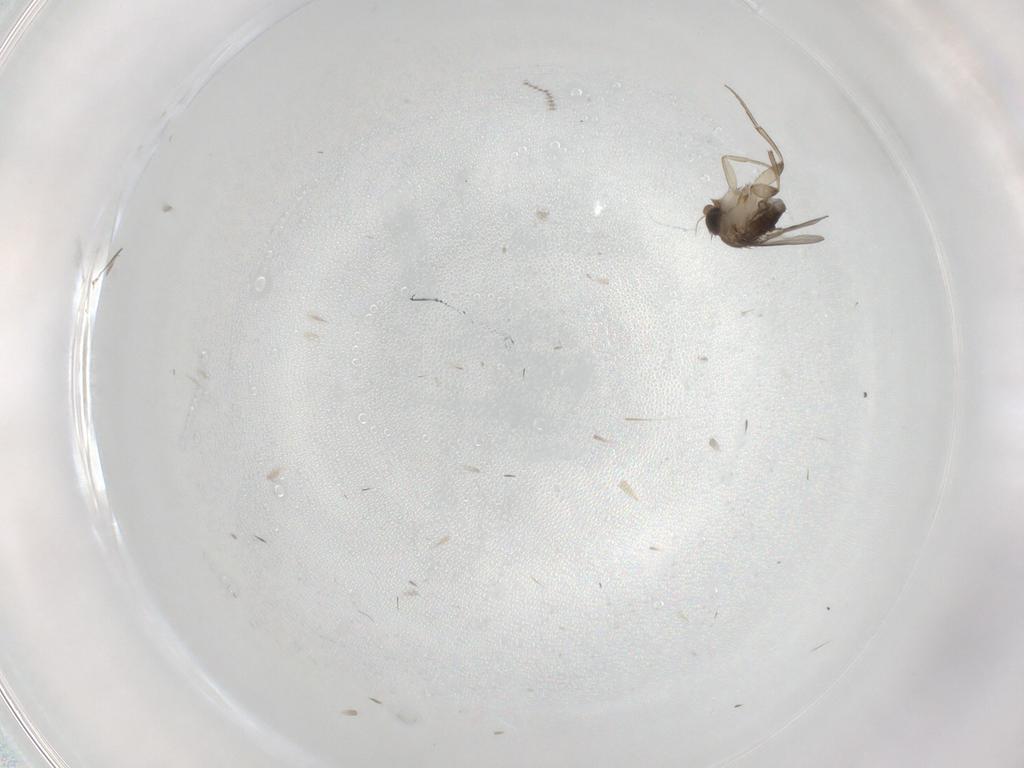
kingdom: Animalia
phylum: Arthropoda
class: Insecta
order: Diptera
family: Phoridae
